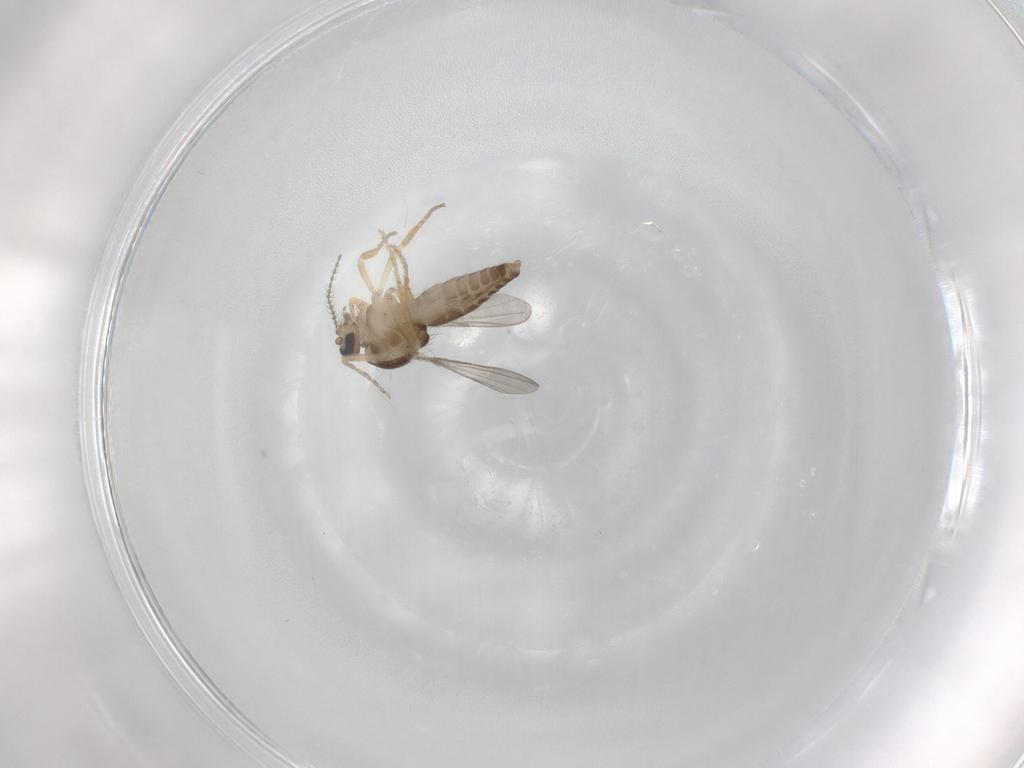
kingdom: Animalia
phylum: Arthropoda
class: Insecta
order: Diptera
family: Ceratopogonidae
